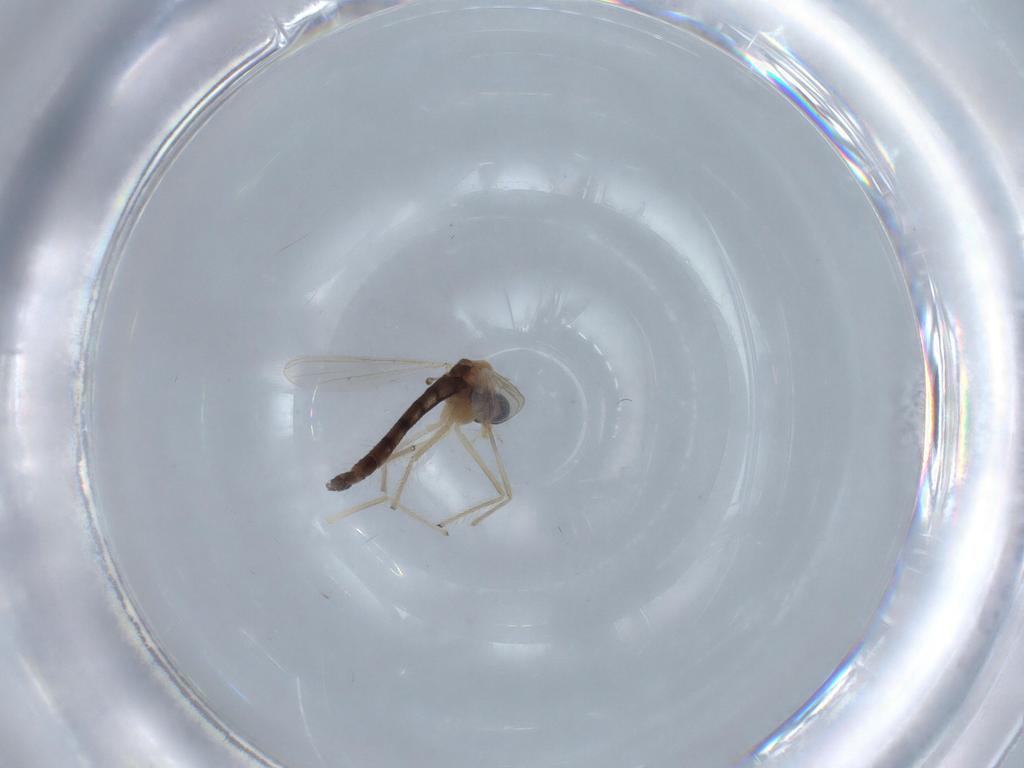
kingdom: Animalia
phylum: Arthropoda
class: Insecta
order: Diptera
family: Chironomidae
